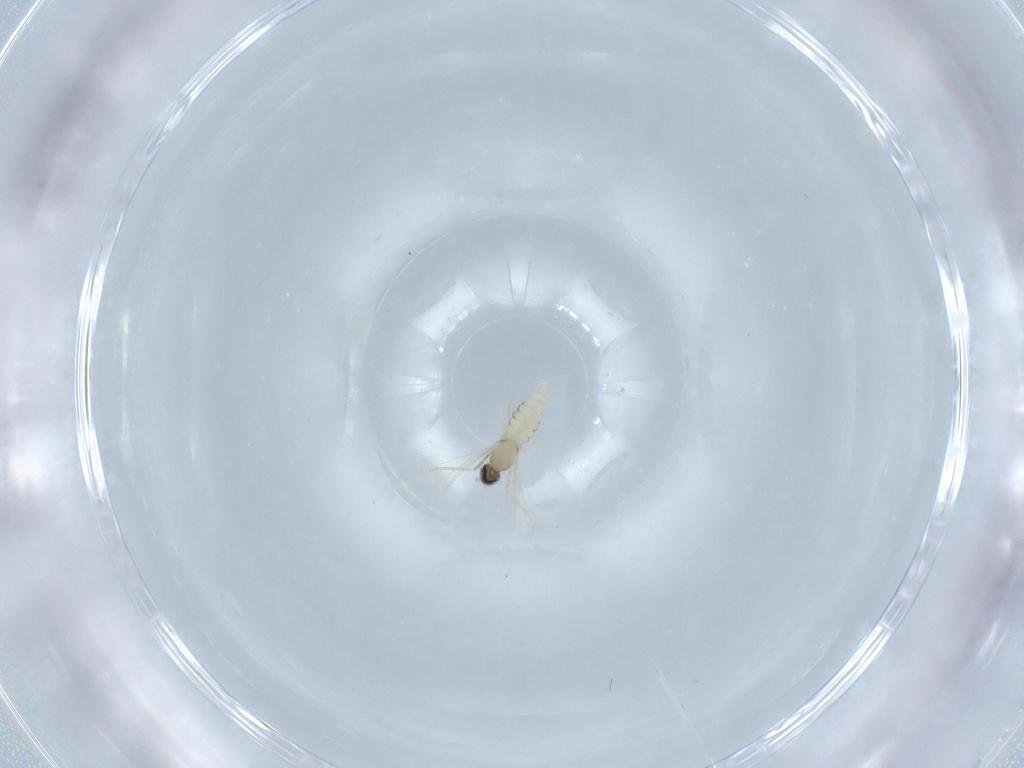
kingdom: Animalia
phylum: Arthropoda
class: Insecta
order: Diptera
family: Cecidomyiidae
